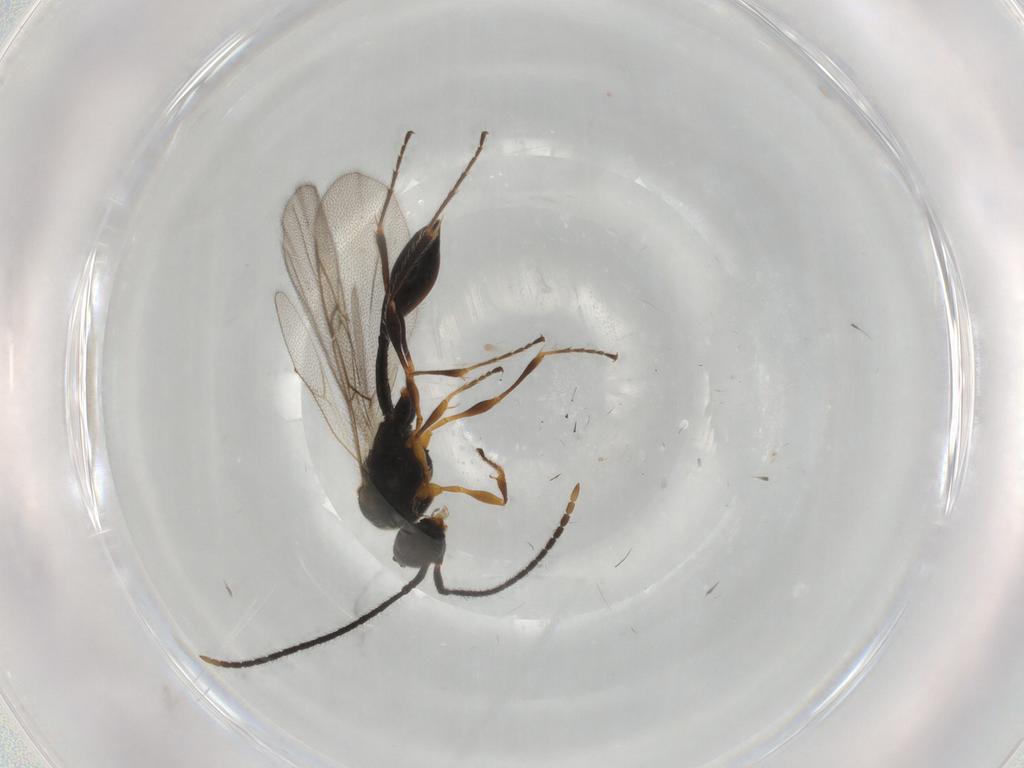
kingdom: Animalia
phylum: Arthropoda
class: Insecta
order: Hymenoptera
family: Diapriidae
